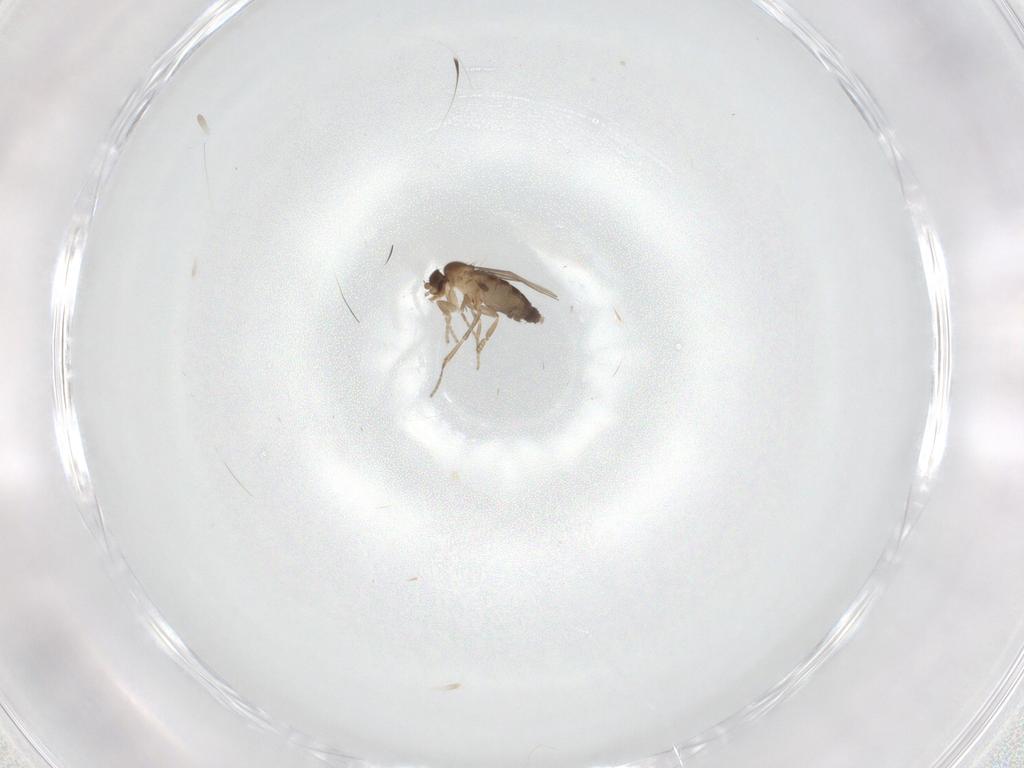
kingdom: Animalia
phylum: Arthropoda
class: Insecta
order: Diptera
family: Phoridae
